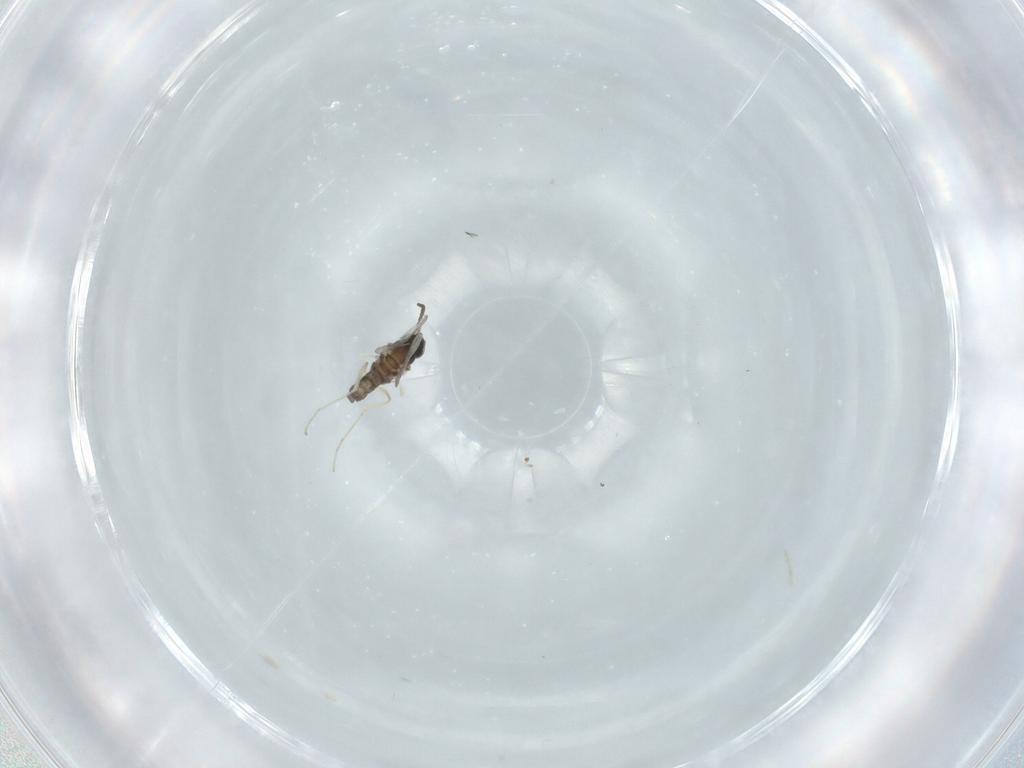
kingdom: Animalia
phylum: Arthropoda
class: Insecta
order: Diptera
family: Cecidomyiidae
